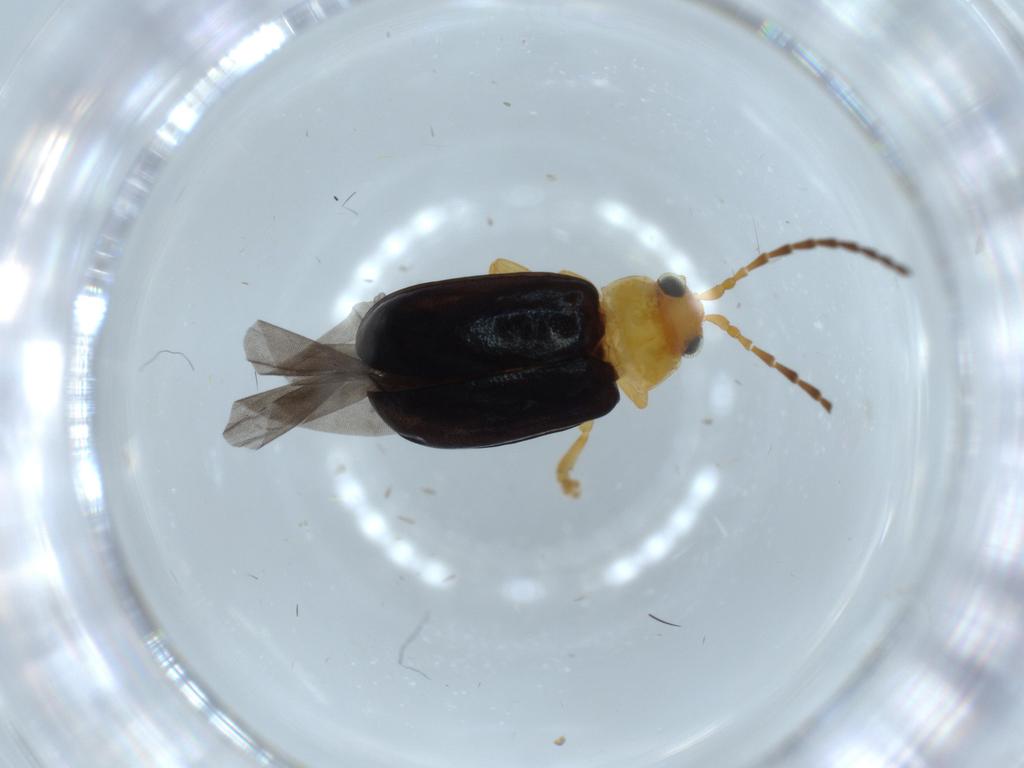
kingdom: Animalia
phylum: Arthropoda
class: Insecta
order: Coleoptera
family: Chrysomelidae
